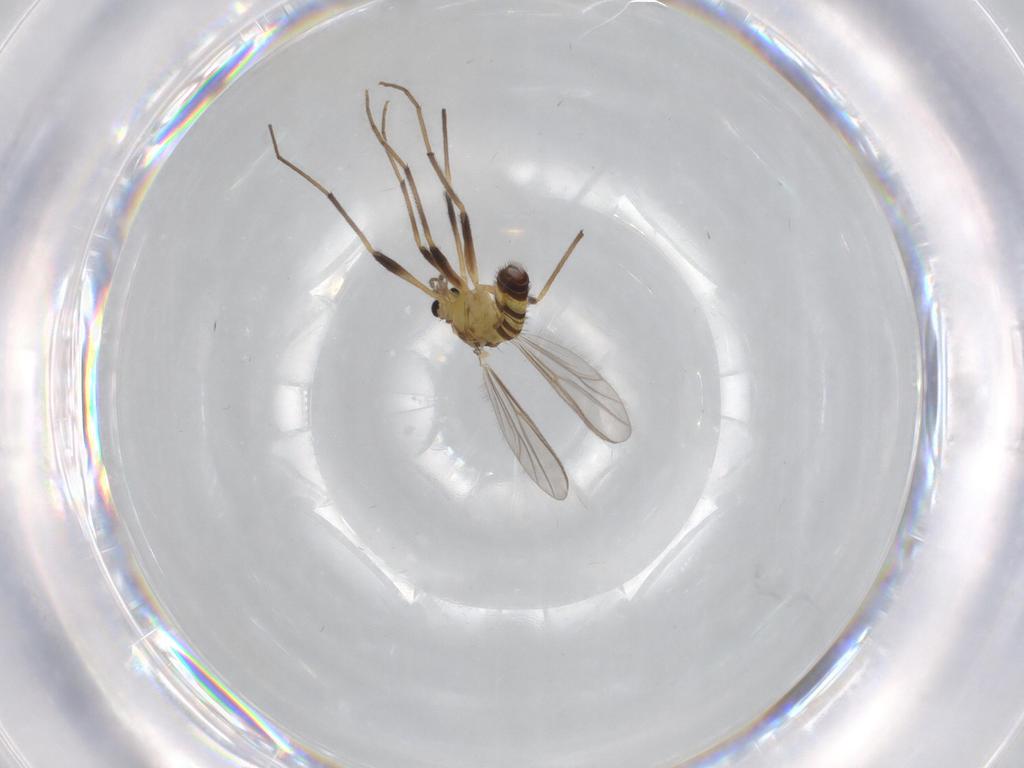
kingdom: Animalia
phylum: Arthropoda
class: Insecta
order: Diptera
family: Chironomidae
